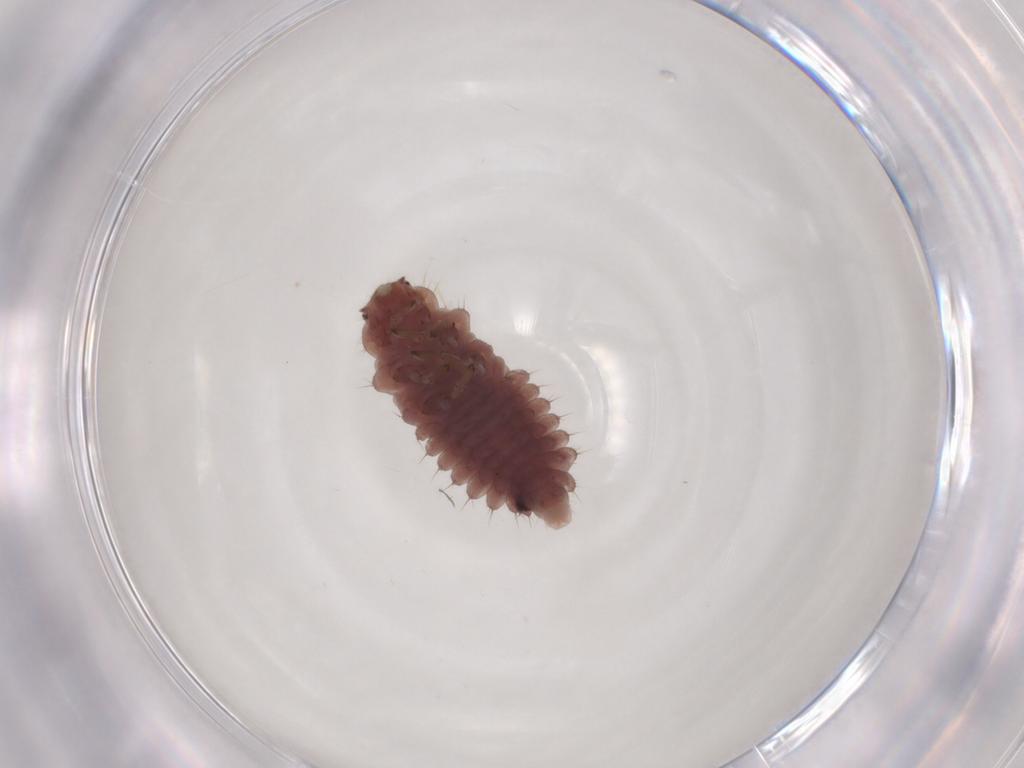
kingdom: Animalia
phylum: Arthropoda
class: Insecta
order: Coleoptera
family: Coccinellidae
